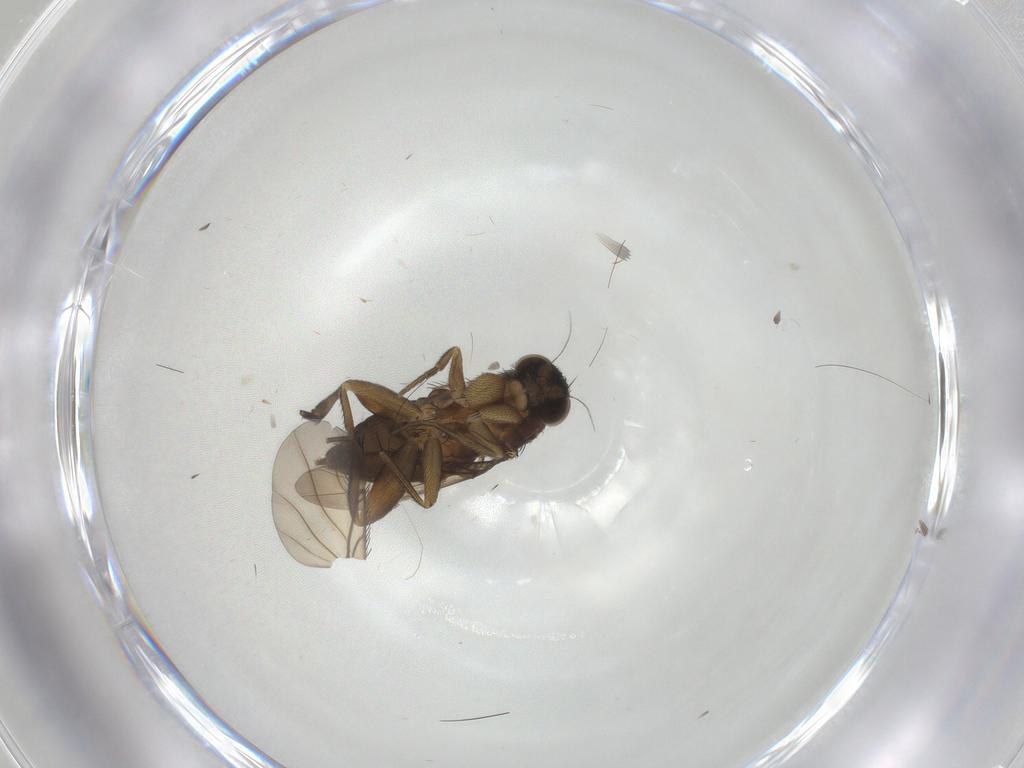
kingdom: Animalia
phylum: Arthropoda
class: Insecta
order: Diptera
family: Phoridae
